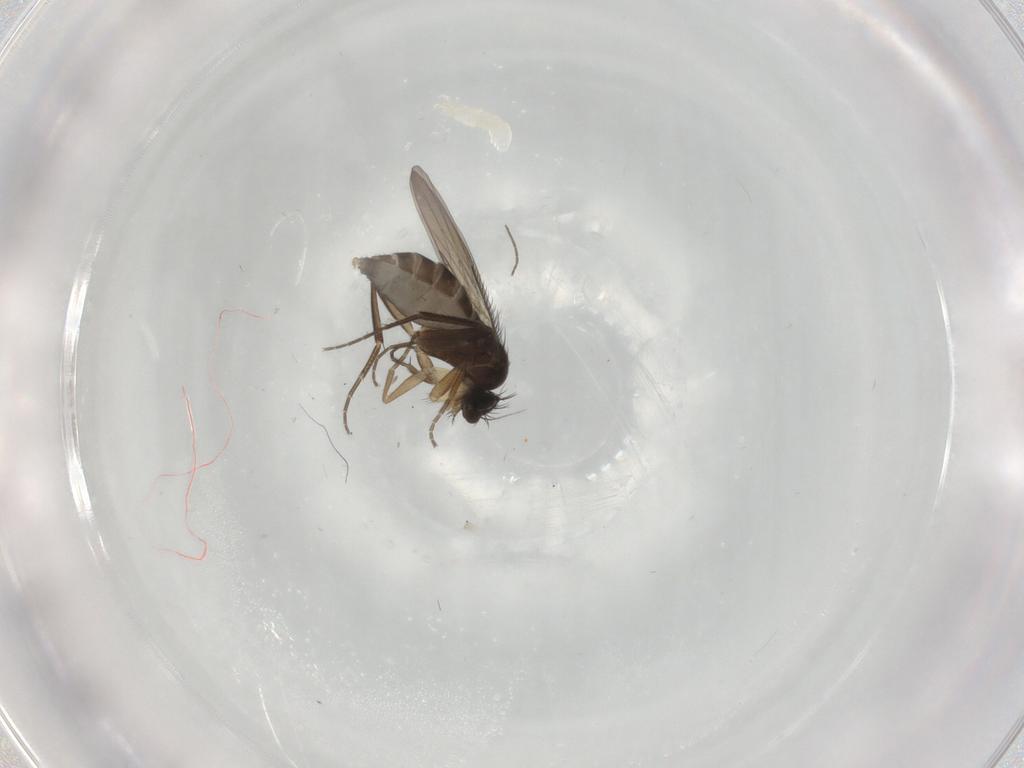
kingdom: Animalia
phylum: Arthropoda
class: Insecta
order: Diptera
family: Phoridae
